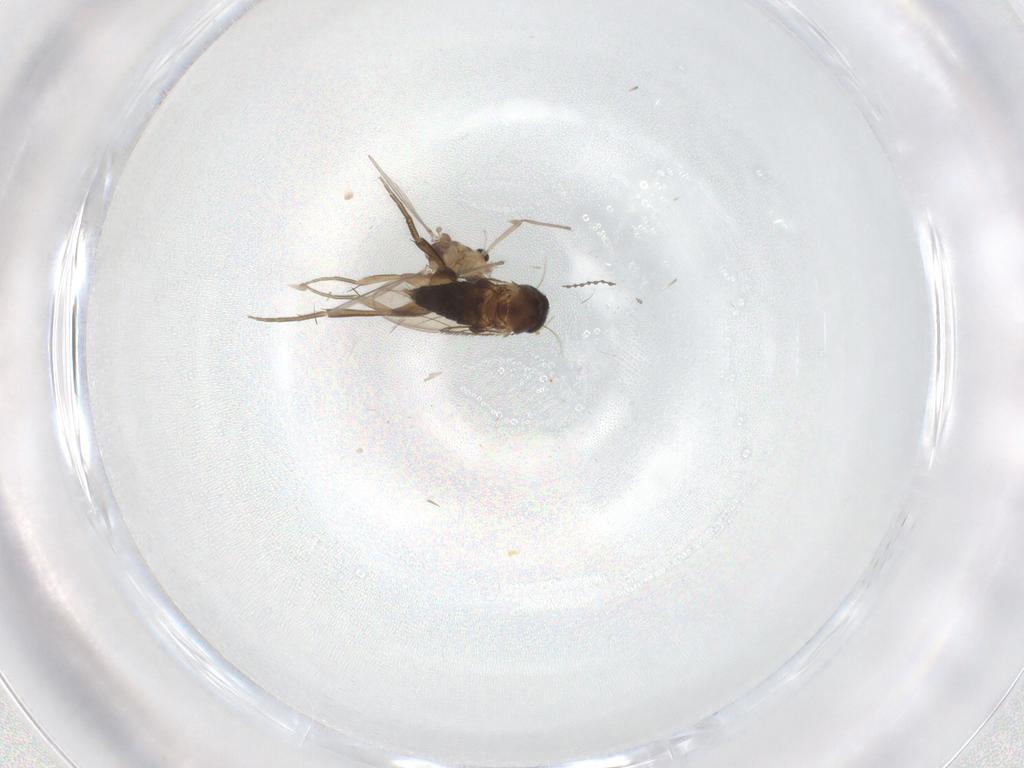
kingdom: Animalia
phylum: Arthropoda
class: Insecta
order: Diptera
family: Phoridae
